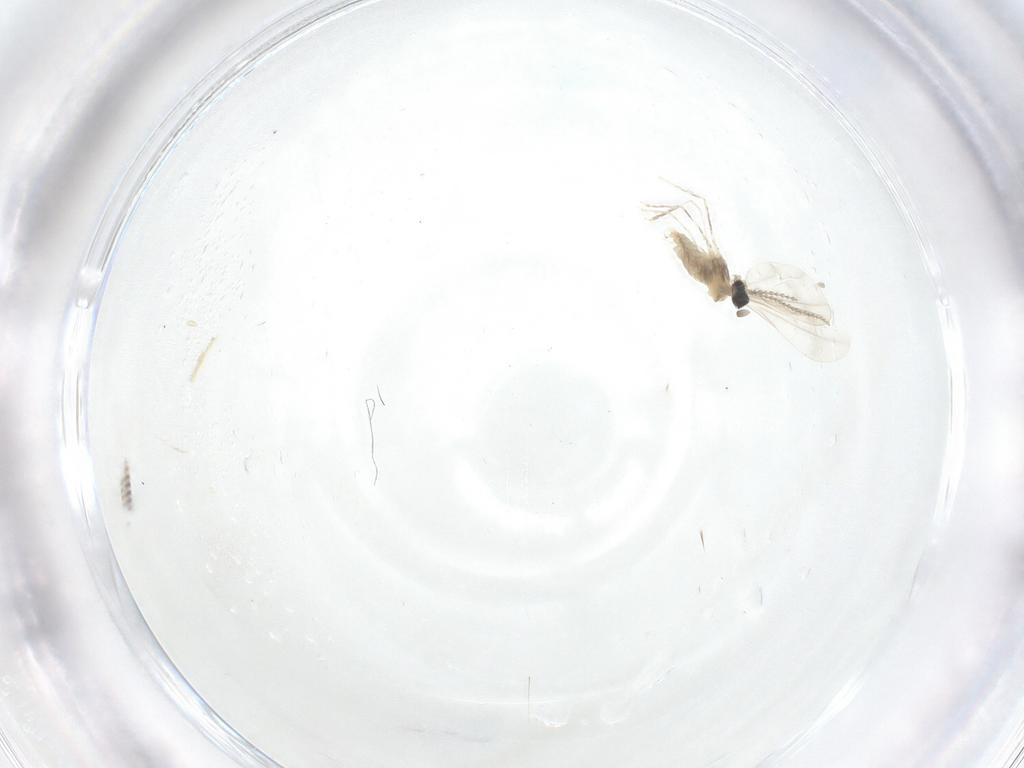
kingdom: Animalia
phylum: Arthropoda
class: Insecta
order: Diptera
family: Cecidomyiidae
